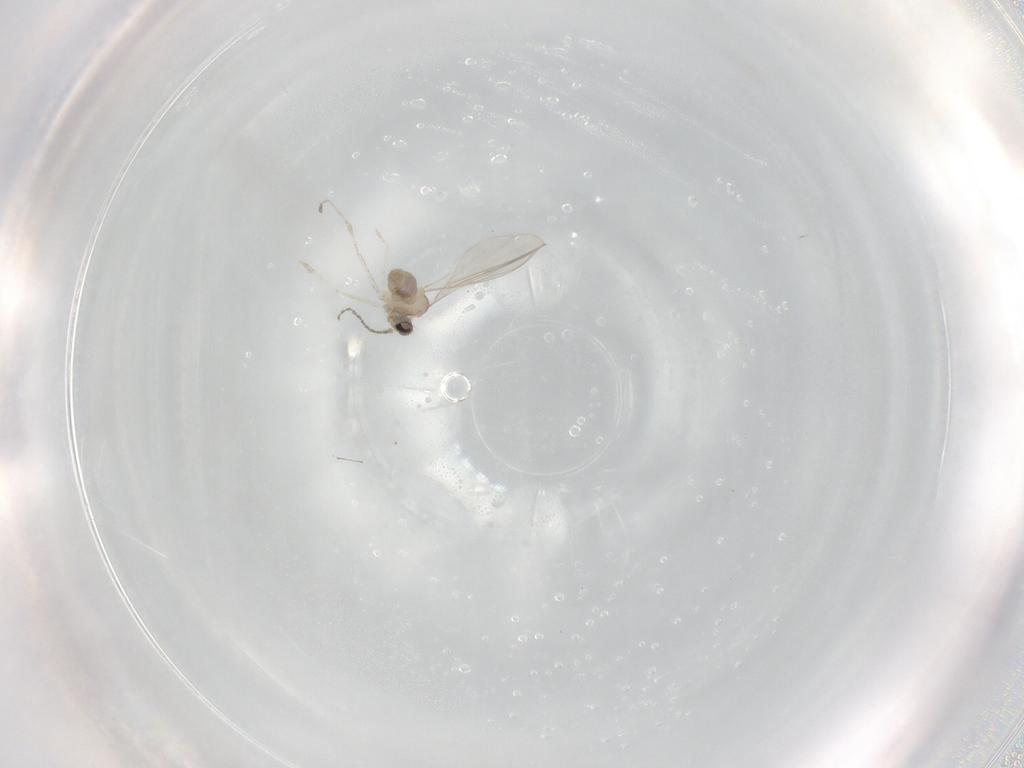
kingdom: Animalia
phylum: Arthropoda
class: Insecta
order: Diptera
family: Cecidomyiidae
